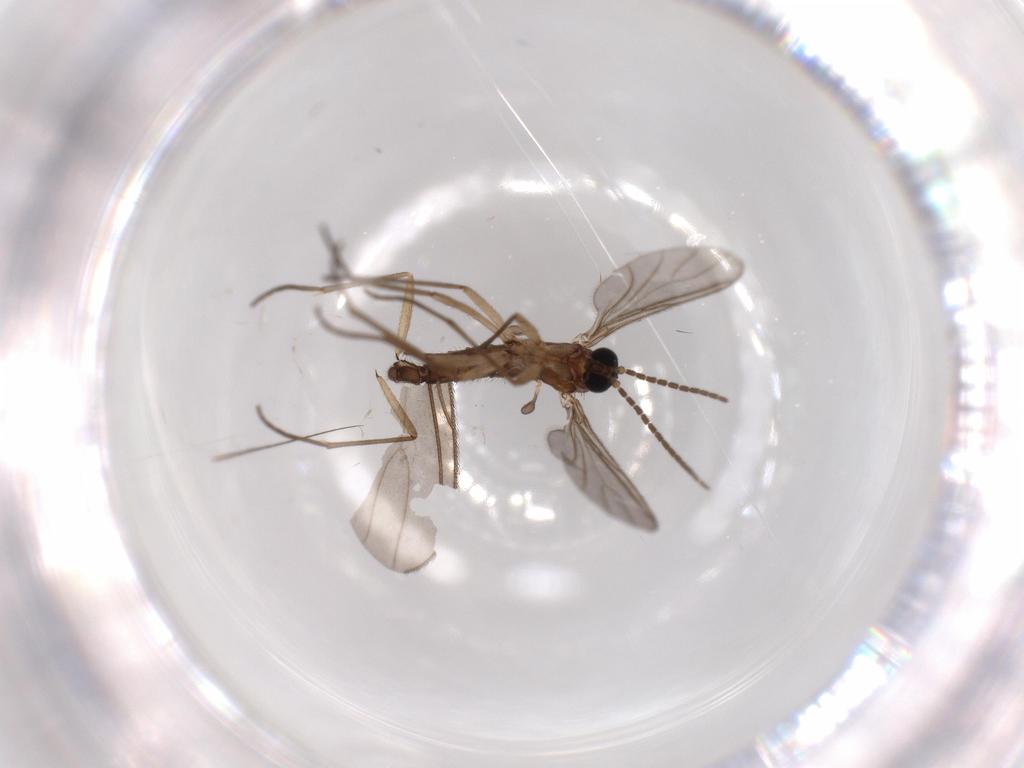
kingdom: Animalia
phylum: Arthropoda
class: Insecta
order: Diptera
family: Sciaridae
